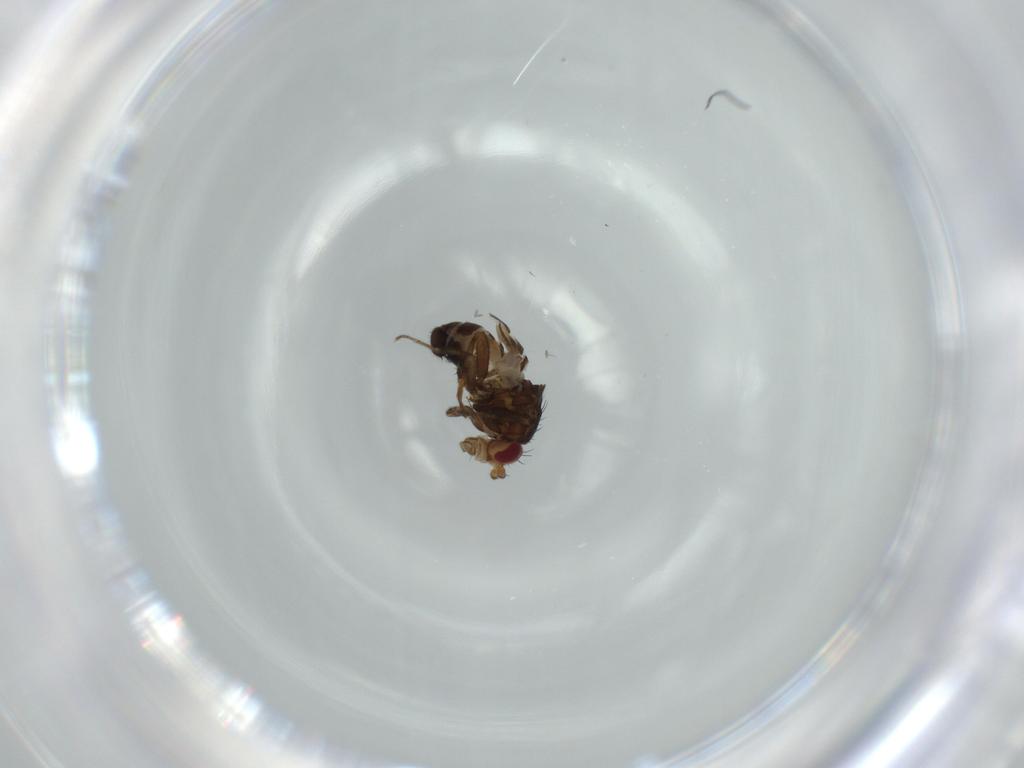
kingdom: Animalia
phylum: Arthropoda
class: Insecta
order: Diptera
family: Sphaeroceridae
